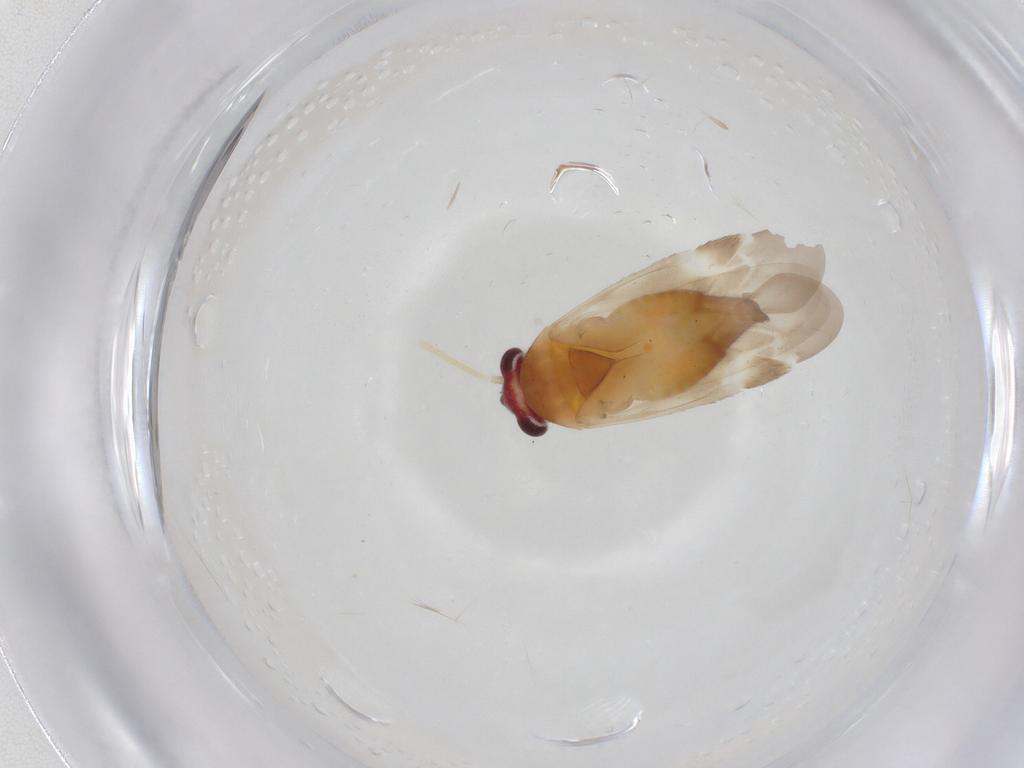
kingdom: Animalia
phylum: Arthropoda
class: Insecta
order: Hemiptera
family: Miridae
